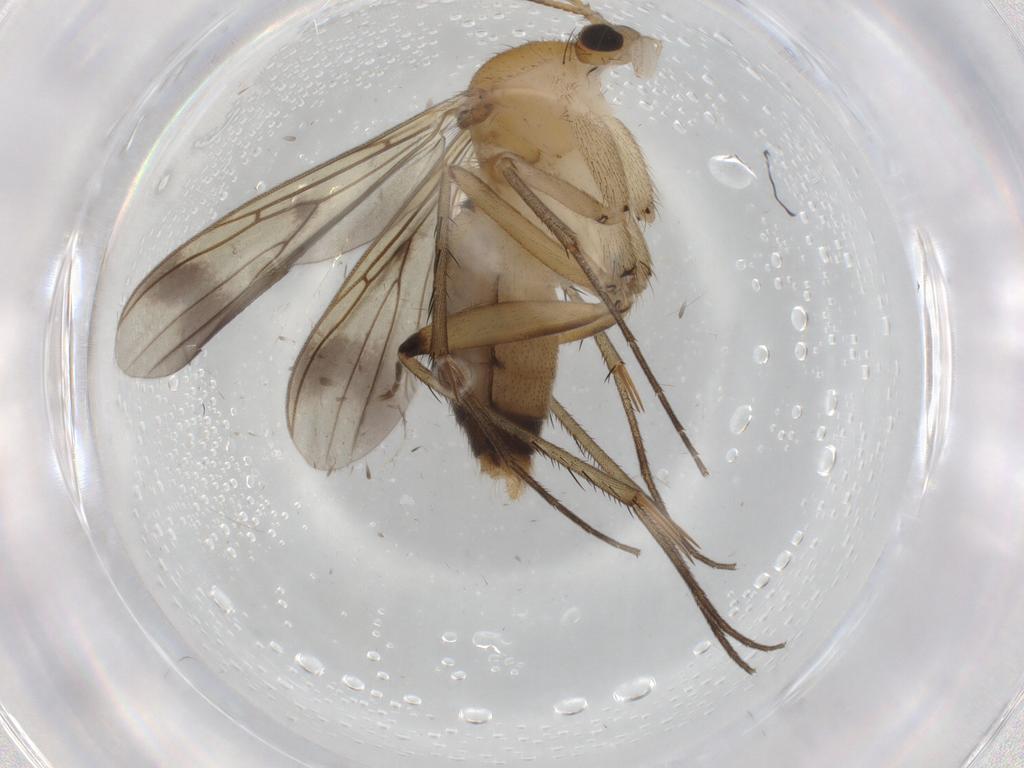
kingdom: Animalia
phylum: Arthropoda
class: Insecta
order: Diptera
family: Mycetophilidae
